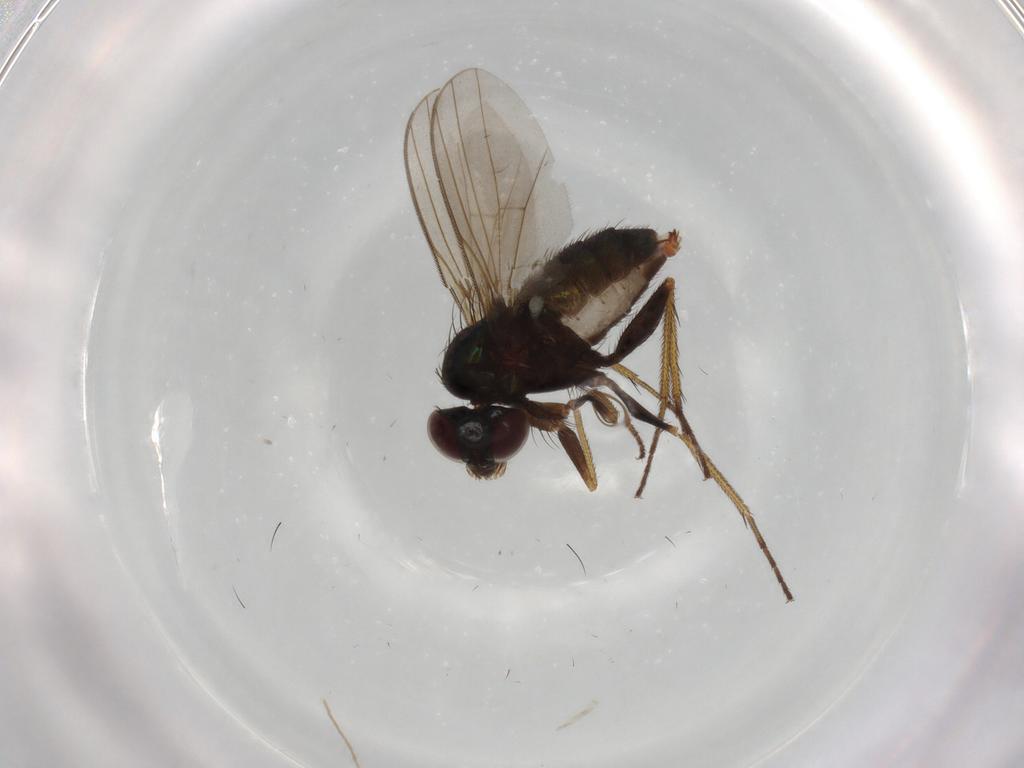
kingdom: Animalia
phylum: Arthropoda
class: Insecta
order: Diptera
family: Dolichopodidae
